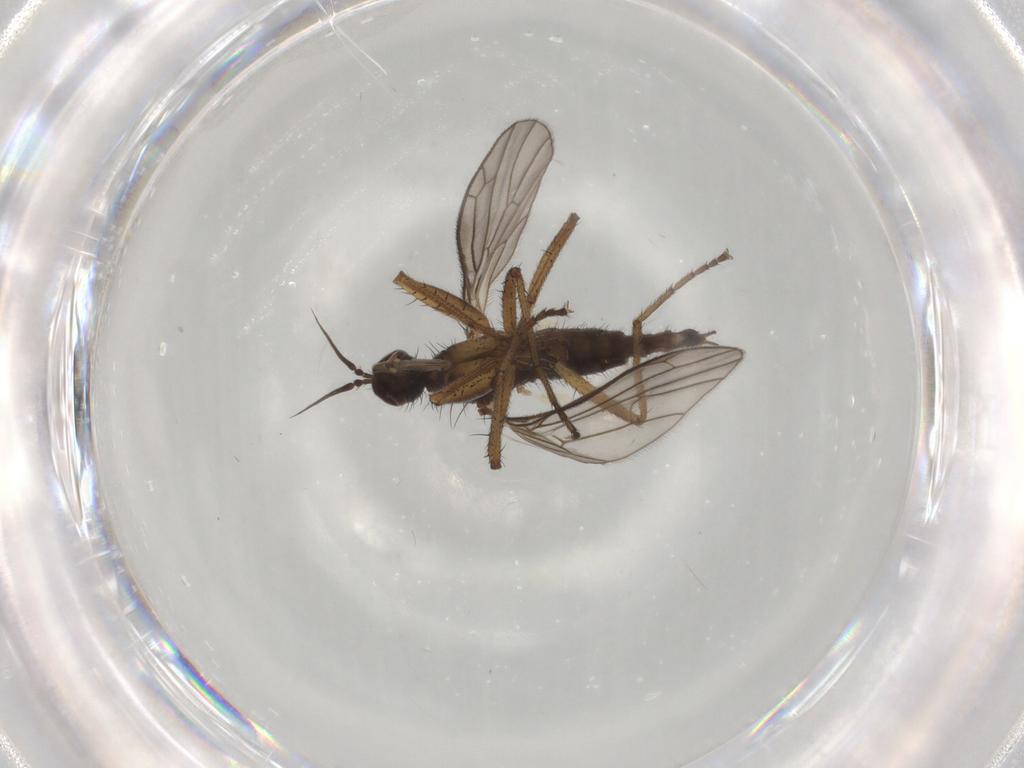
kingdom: Animalia
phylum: Arthropoda
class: Insecta
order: Diptera
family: Empididae
